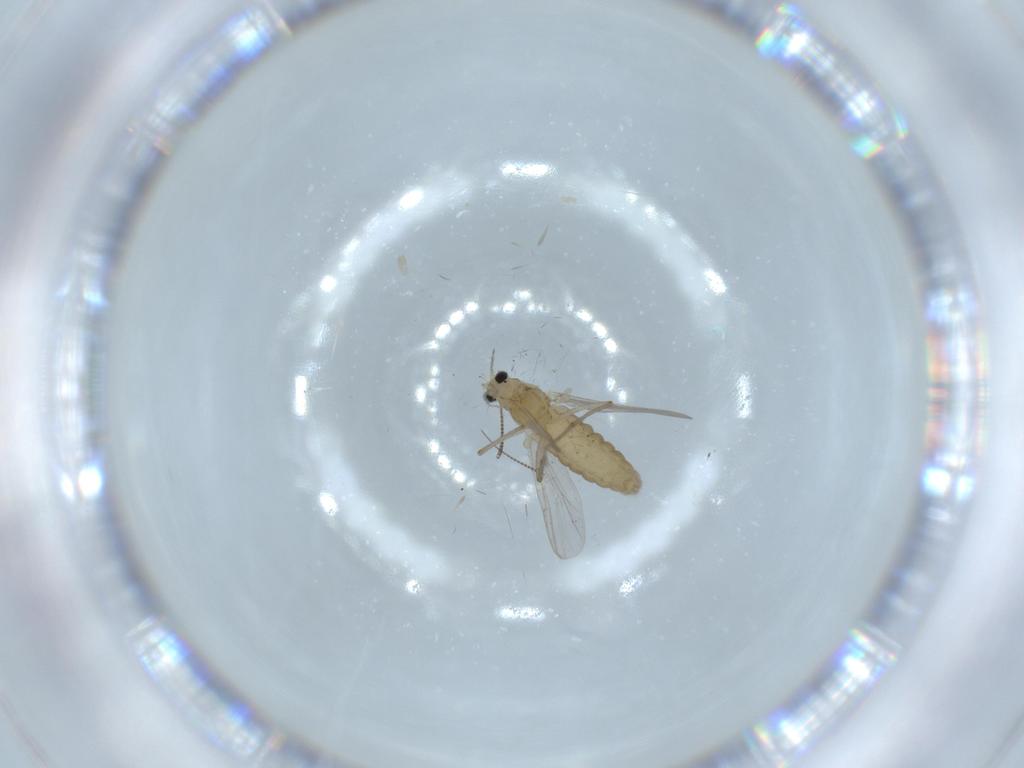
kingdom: Animalia
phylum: Arthropoda
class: Insecta
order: Diptera
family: Chironomidae
